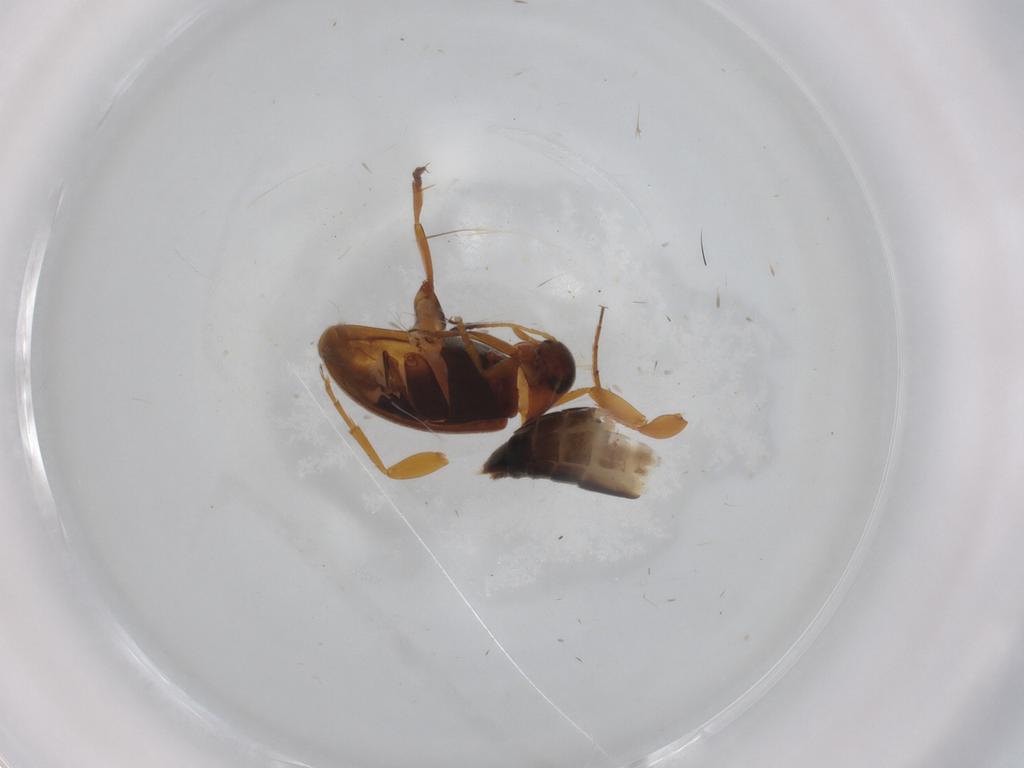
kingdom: Animalia
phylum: Arthropoda
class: Insecta
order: Coleoptera
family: Scraptiidae
